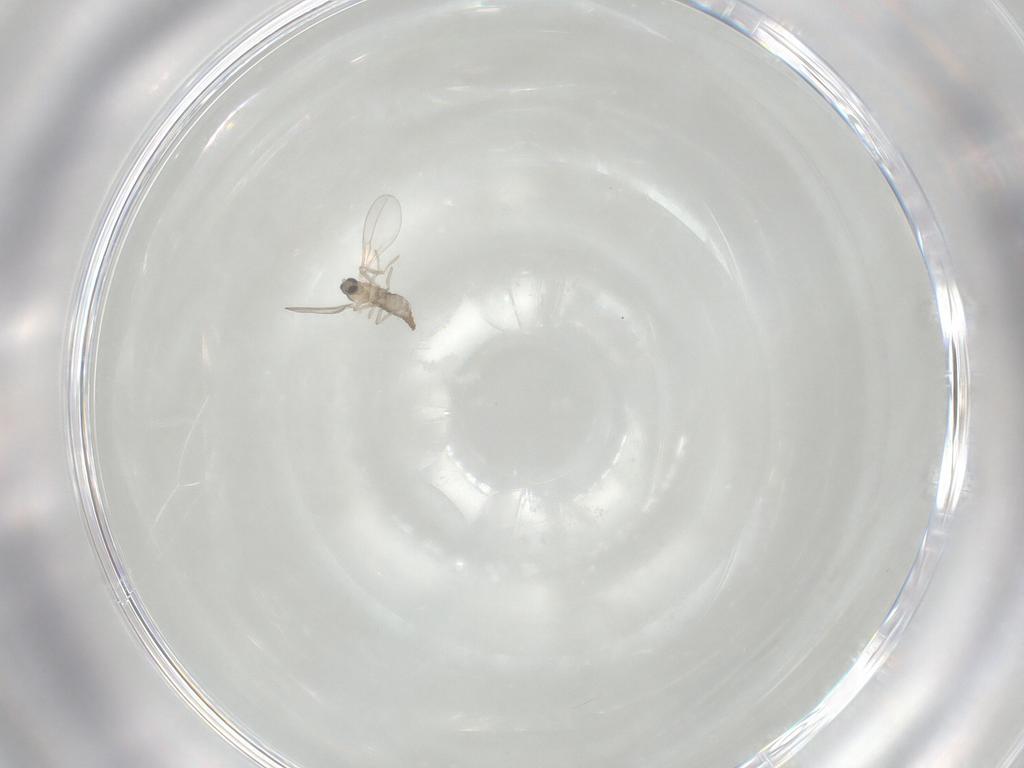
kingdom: Animalia
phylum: Arthropoda
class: Insecta
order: Diptera
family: Cecidomyiidae
